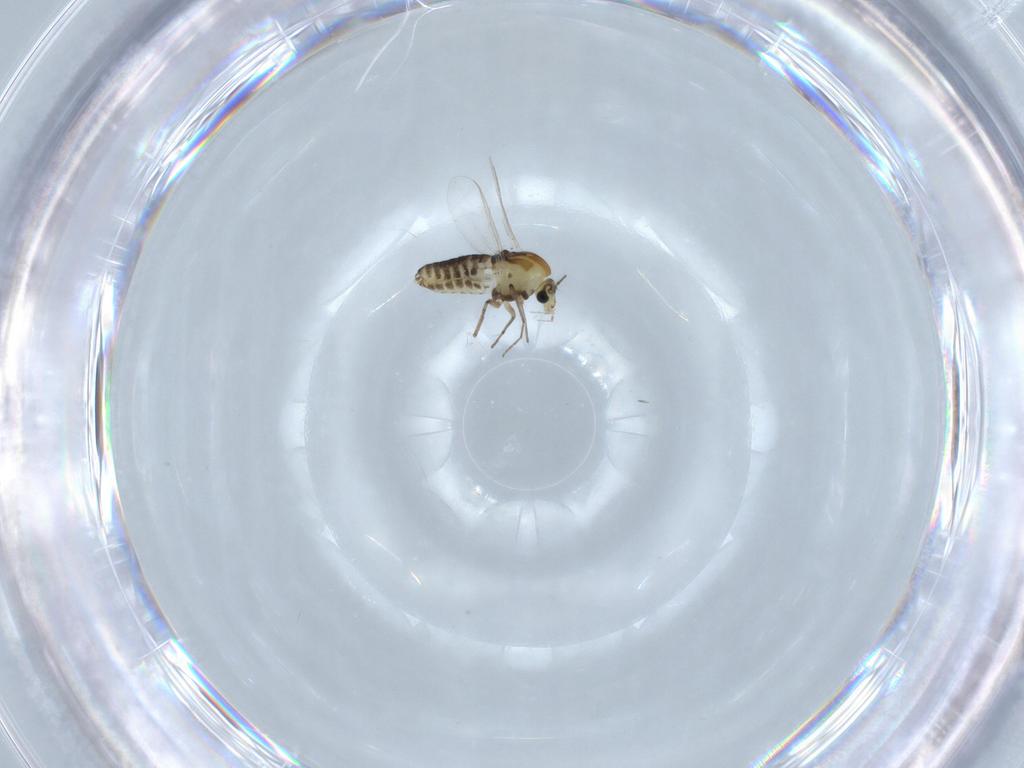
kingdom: Animalia
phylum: Arthropoda
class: Insecta
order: Diptera
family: Chironomidae
